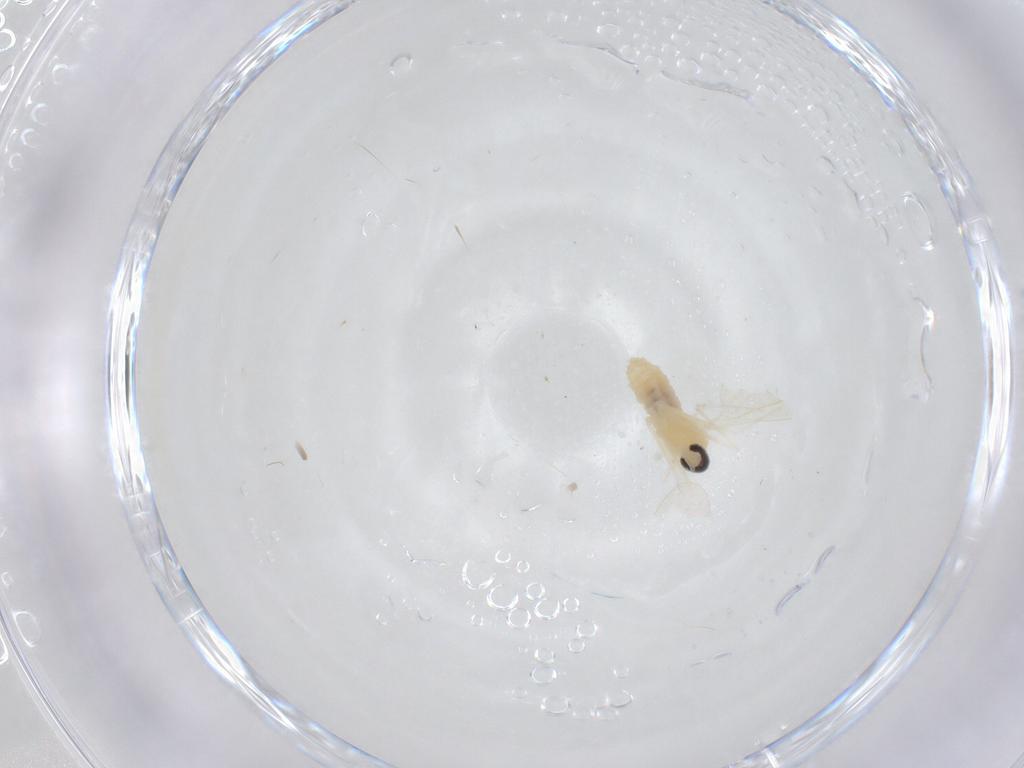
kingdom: Animalia
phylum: Arthropoda
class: Insecta
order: Diptera
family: Cecidomyiidae
